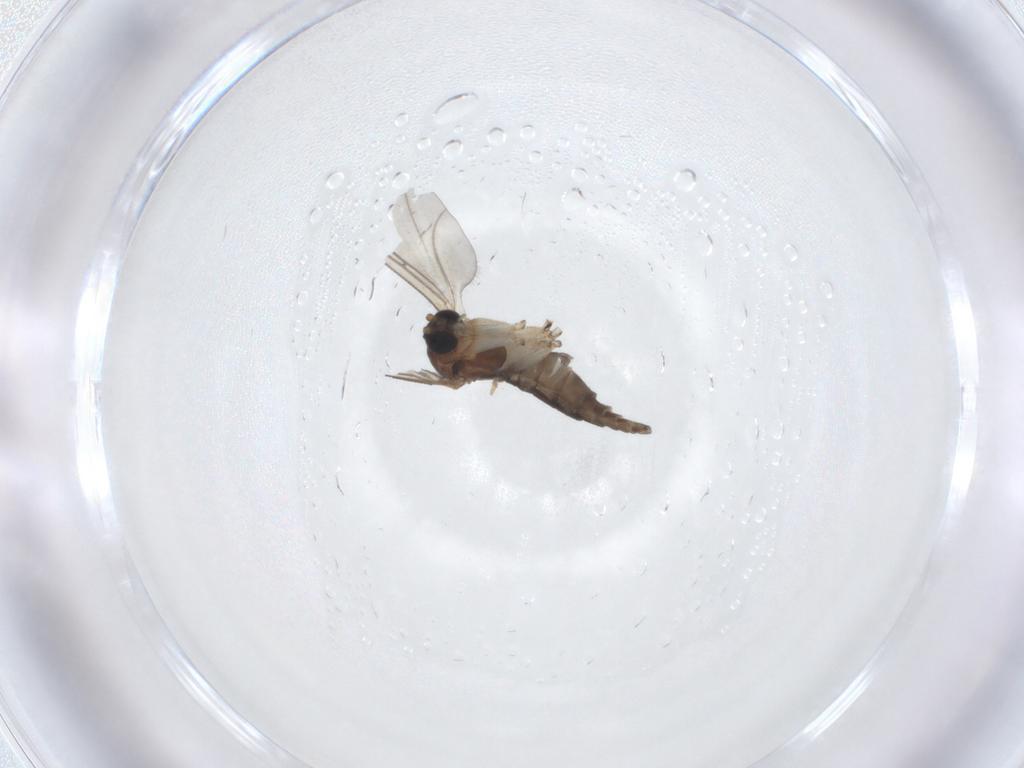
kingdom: Animalia
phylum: Arthropoda
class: Insecta
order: Diptera
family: Sciaridae
